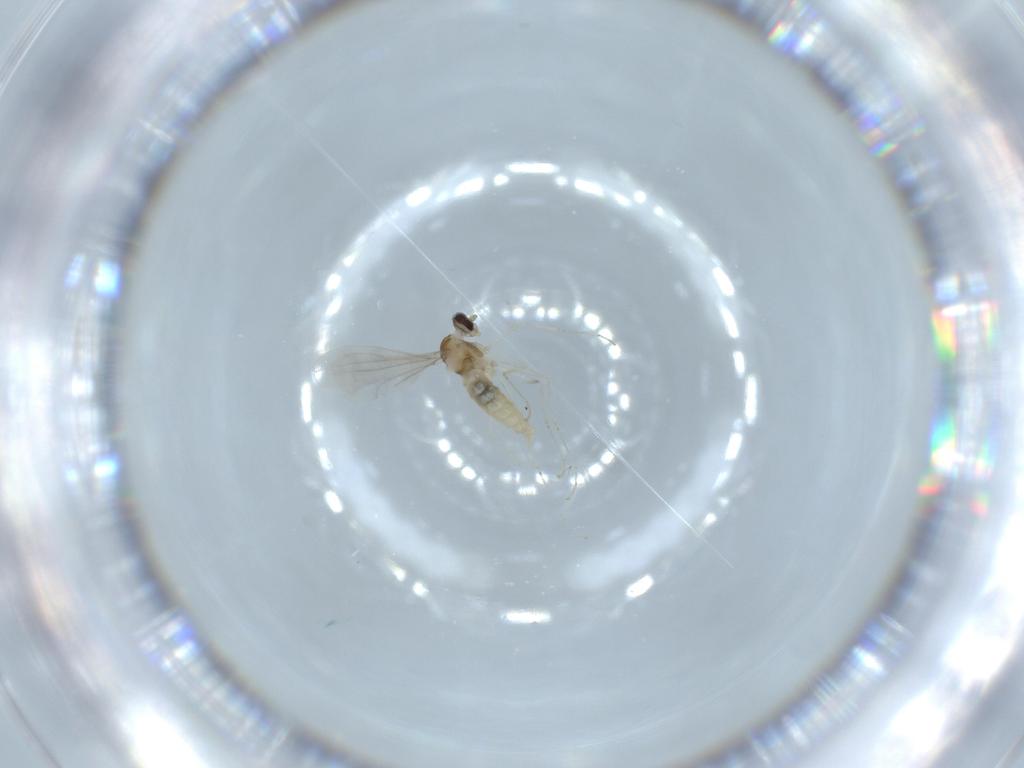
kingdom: Animalia
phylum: Arthropoda
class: Insecta
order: Diptera
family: Cecidomyiidae
